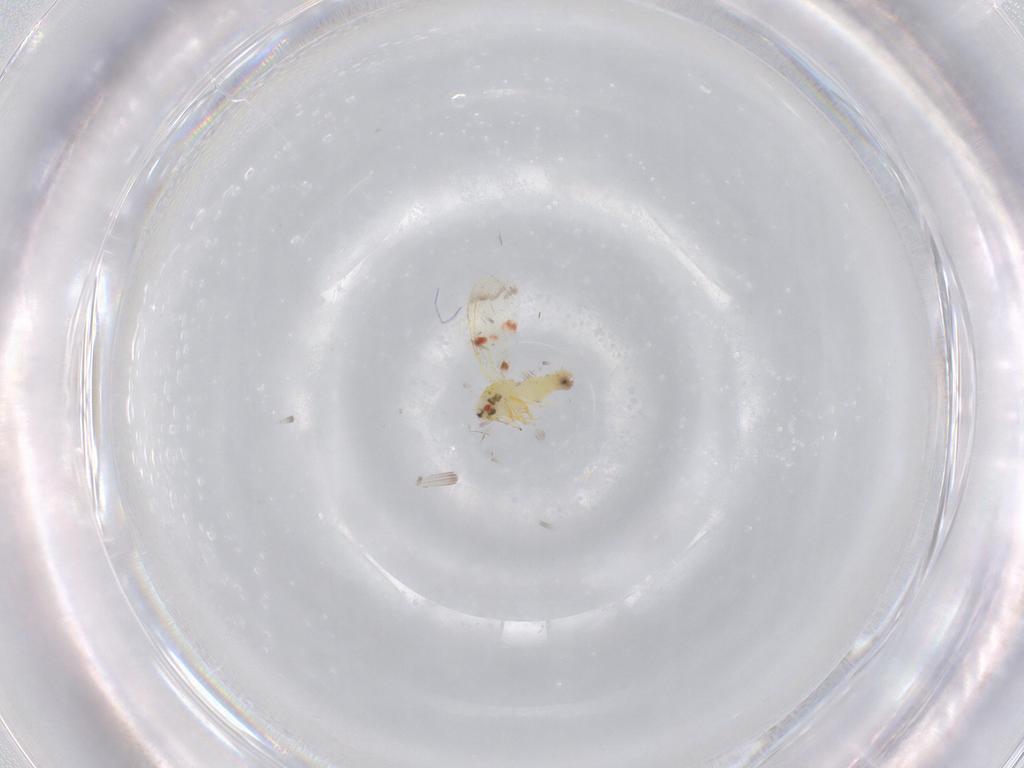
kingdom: Animalia
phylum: Arthropoda
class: Insecta
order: Hemiptera
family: Aleyrodidae
